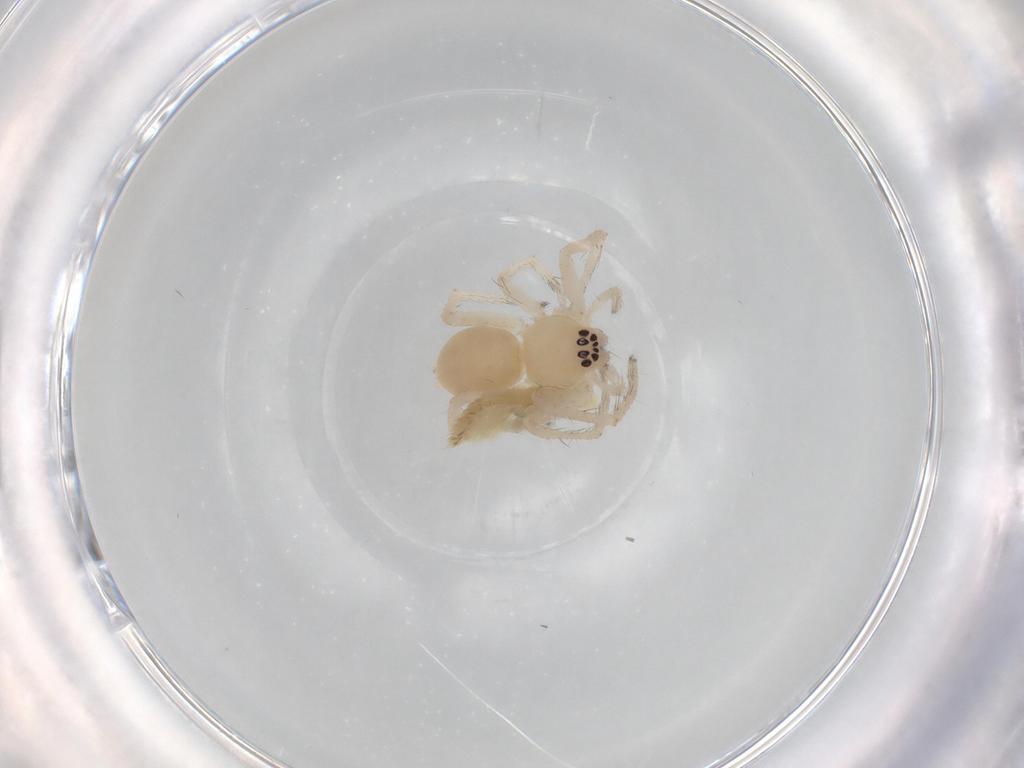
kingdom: Animalia
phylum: Arthropoda
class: Arachnida
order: Araneae
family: Anyphaenidae
